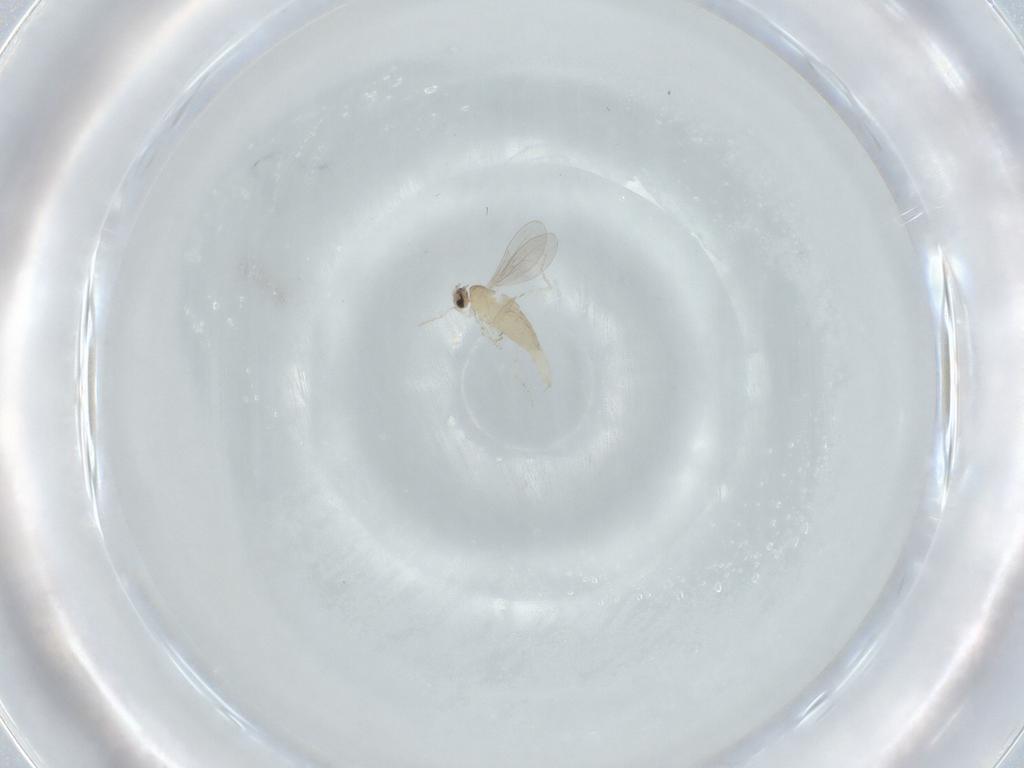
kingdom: Animalia
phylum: Arthropoda
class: Insecta
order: Diptera
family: Cecidomyiidae
